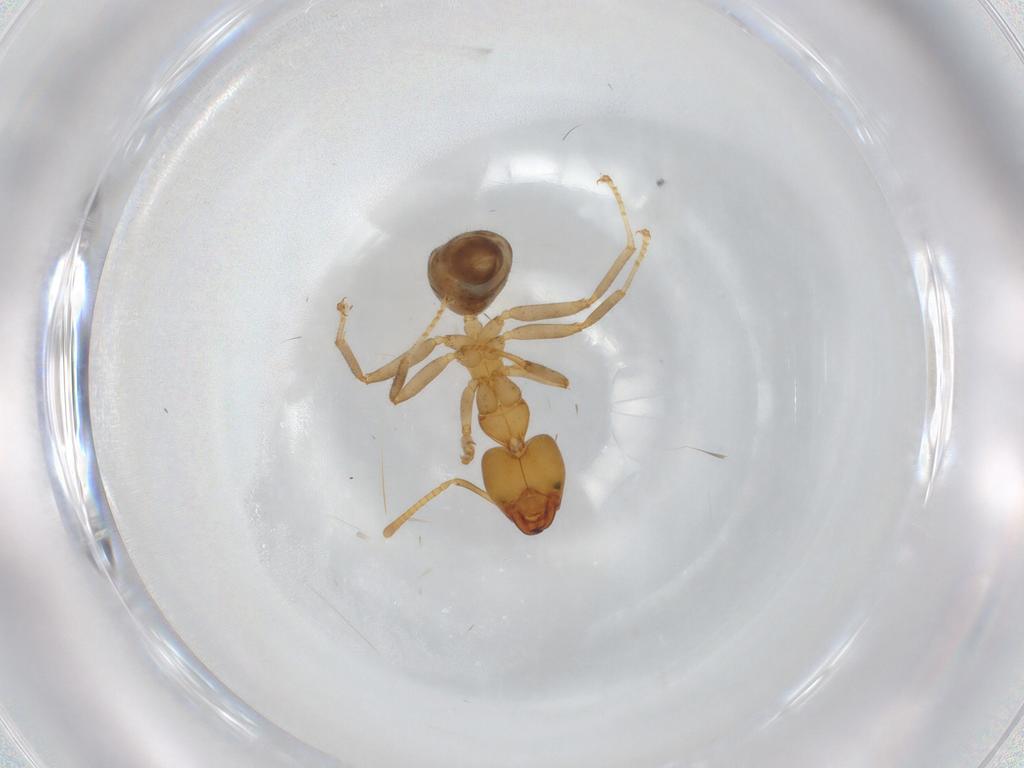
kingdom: Animalia
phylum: Arthropoda
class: Insecta
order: Hymenoptera
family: Formicidae
